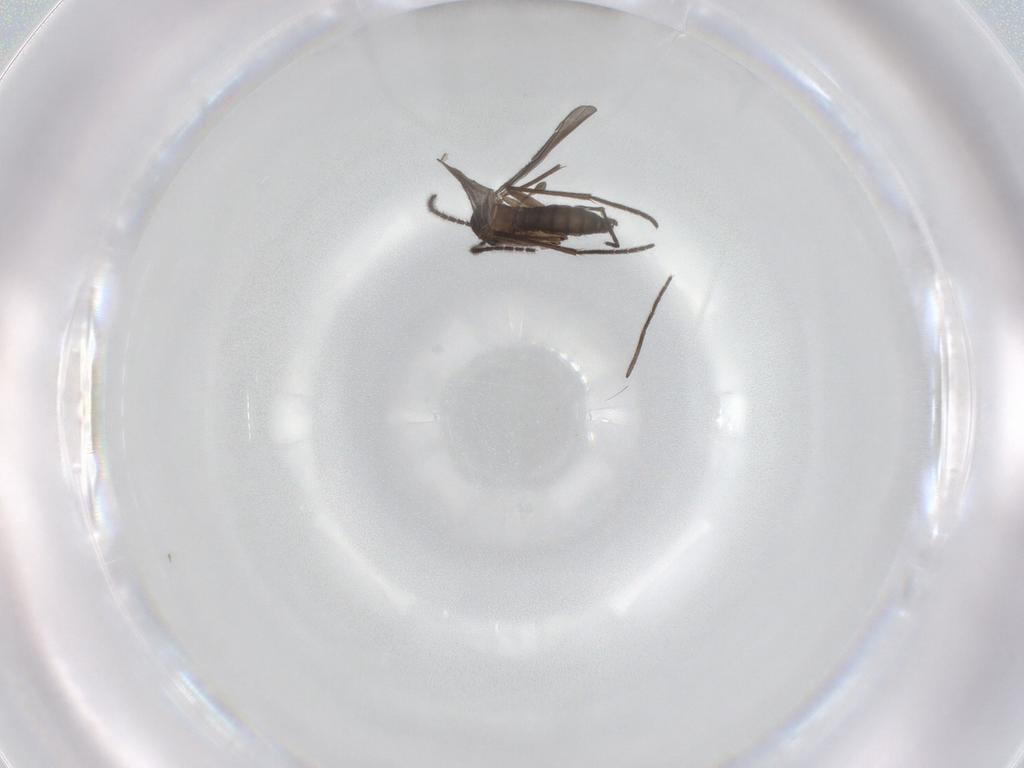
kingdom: Animalia
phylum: Arthropoda
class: Insecta
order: Diptera
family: Sciaridae
